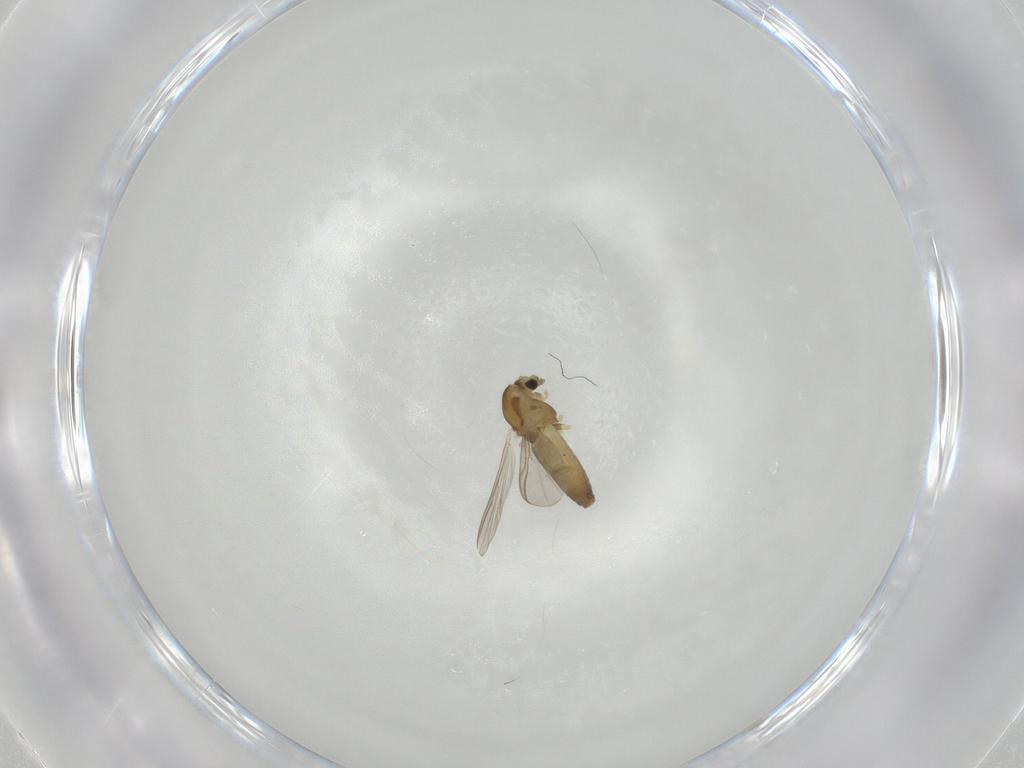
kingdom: Animalia
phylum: Arthropoda
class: Insecta
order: Diptera
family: Chironomidae
